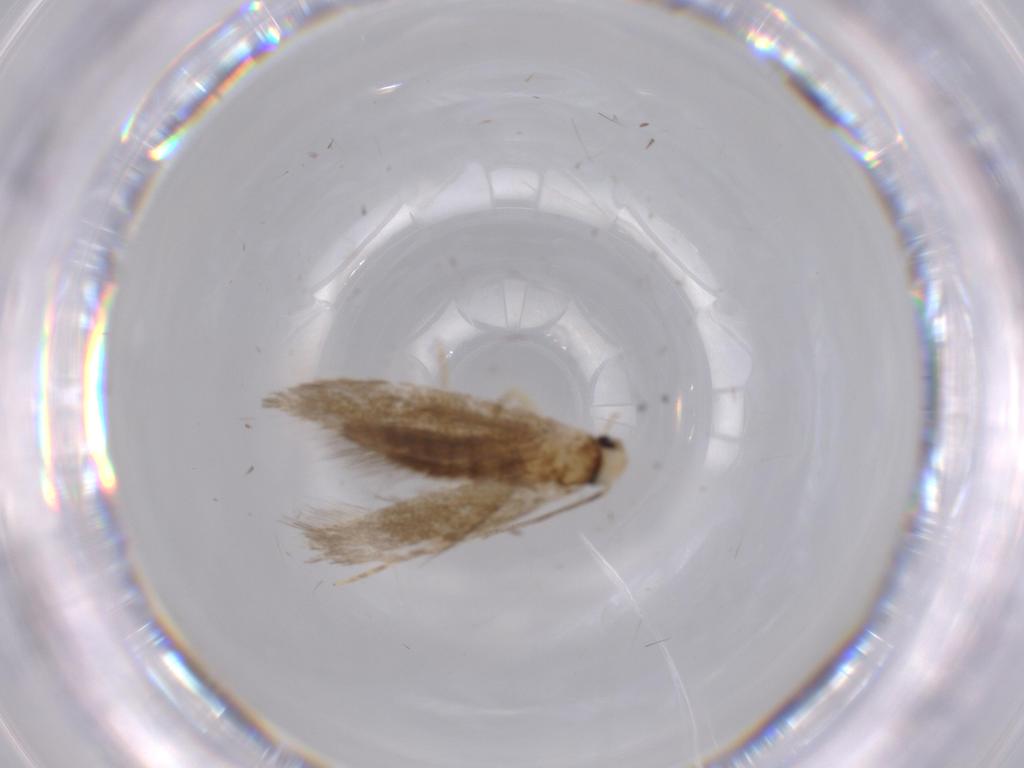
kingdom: Animalia
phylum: Arthropoda
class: Insecta
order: Lepidoptera
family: Tineidae
